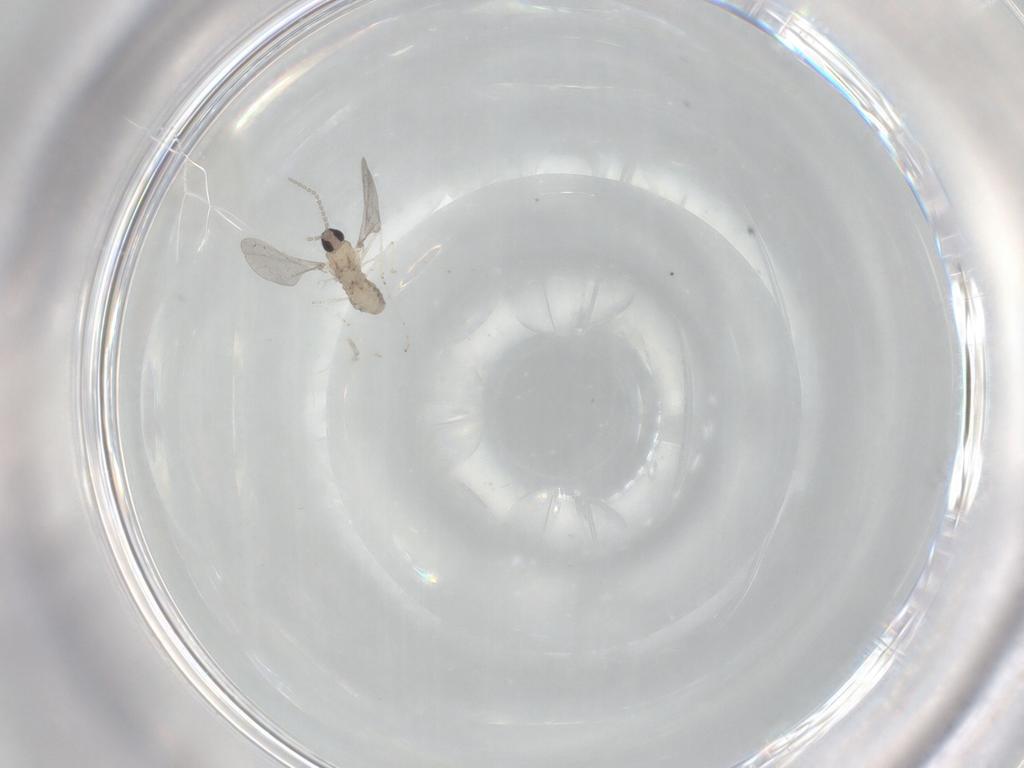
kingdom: Animalia
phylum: Arthropoda
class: Insecta
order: Diptera
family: Cecidomyiidae
